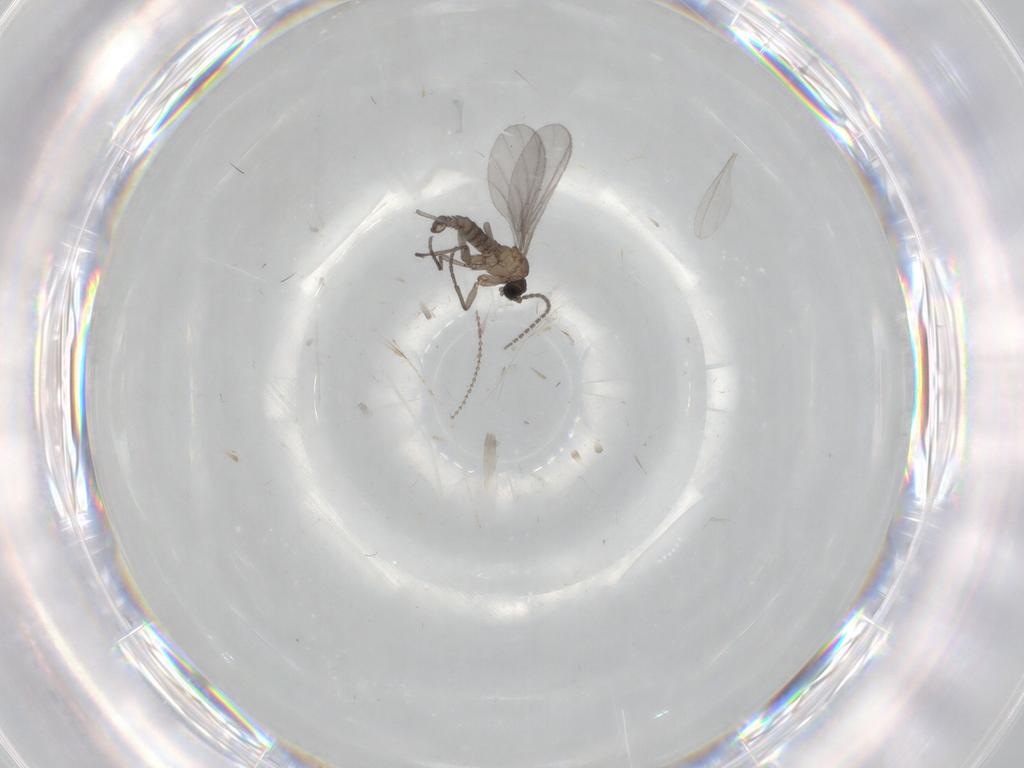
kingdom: Animalia
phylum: Arthropoda
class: Insecta
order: Diptera
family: Sciaridae
